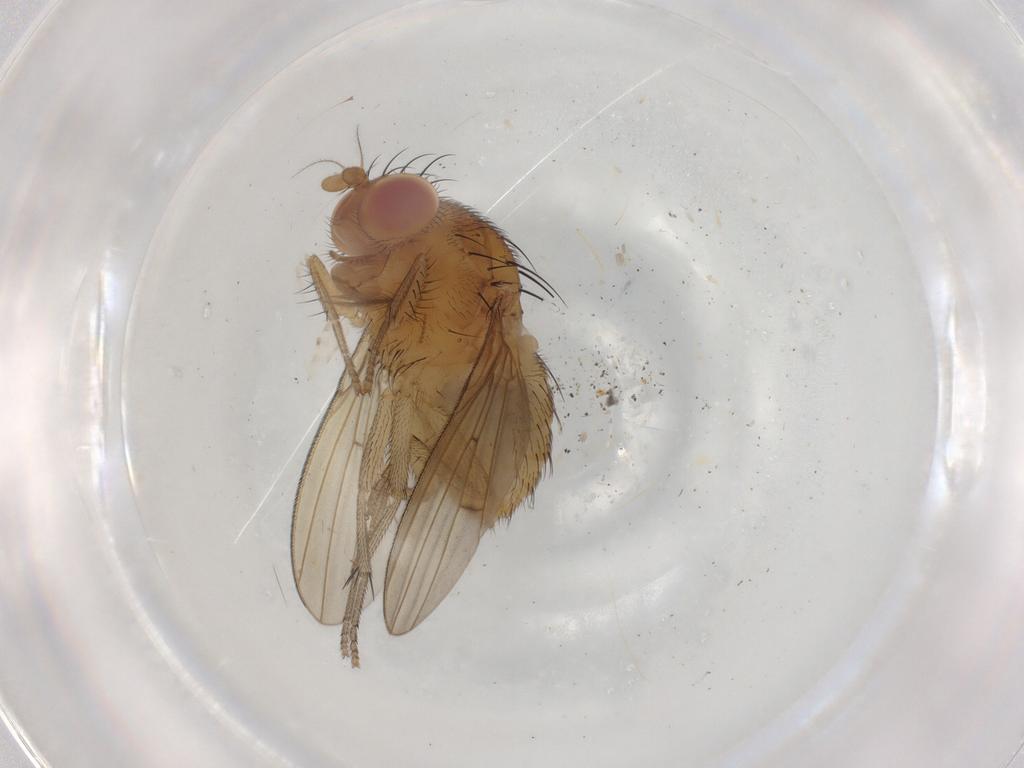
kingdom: Animalia
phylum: Arthropoda
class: Insecta
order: Diptera
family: Lauxaniidae
